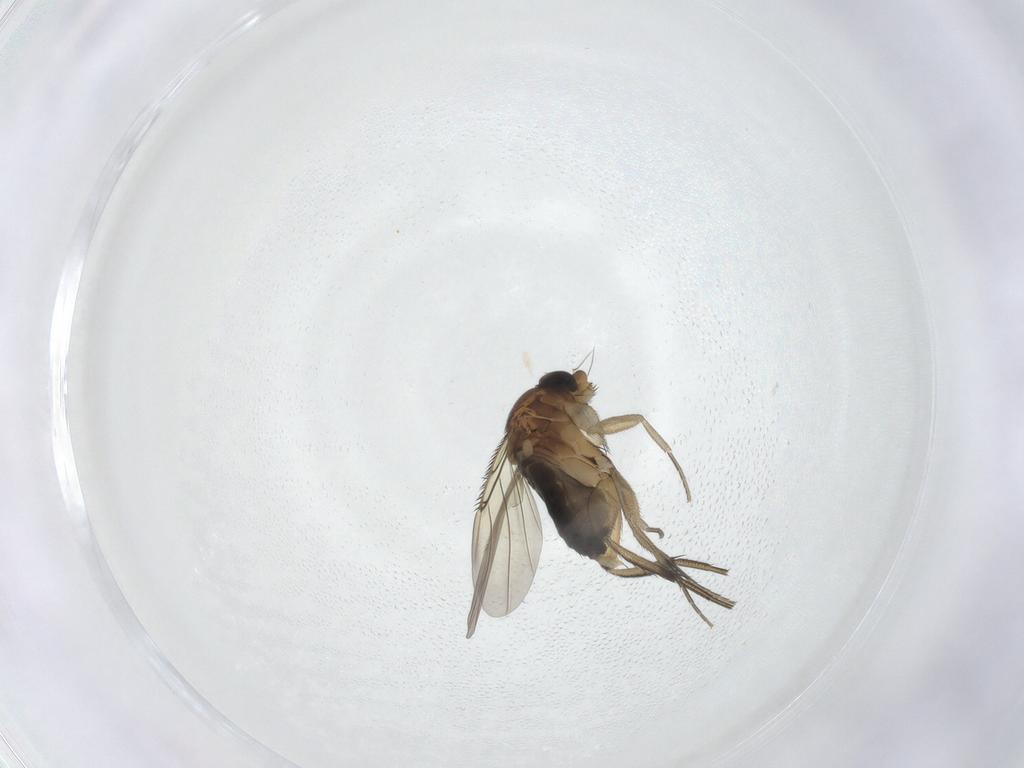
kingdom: Animalia
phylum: Arthropoda
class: Insecta
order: Diptera
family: Phoridae
